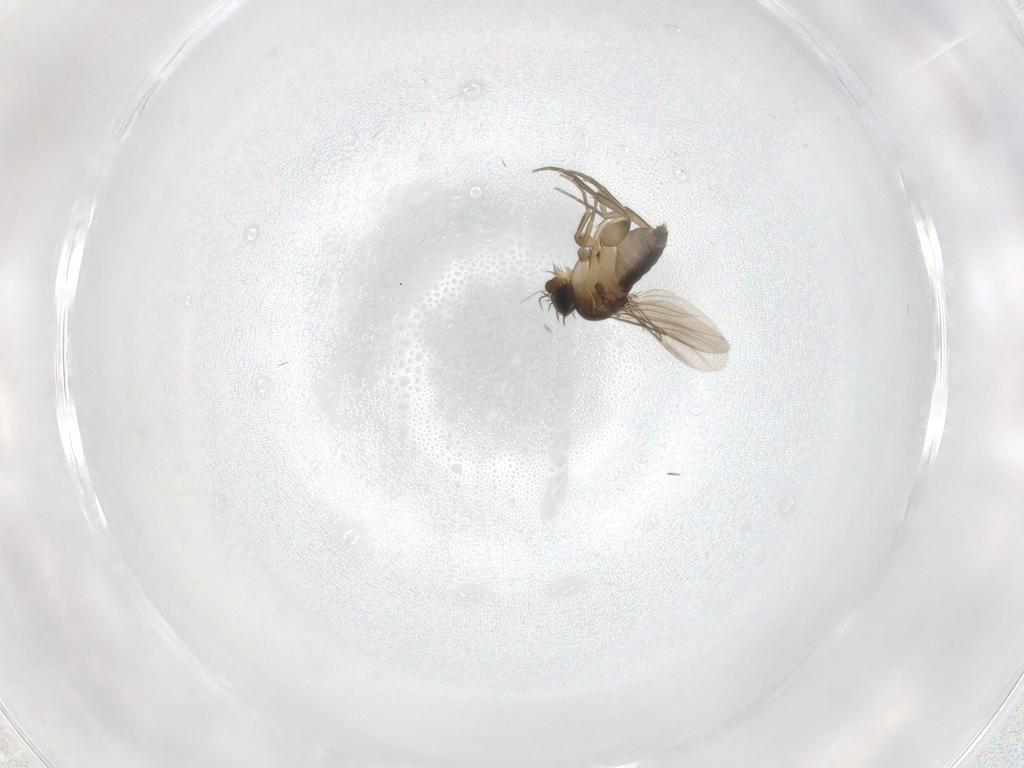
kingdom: Animalia
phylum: Arthropoda
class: Insecta
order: Diptera
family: Phoridae
